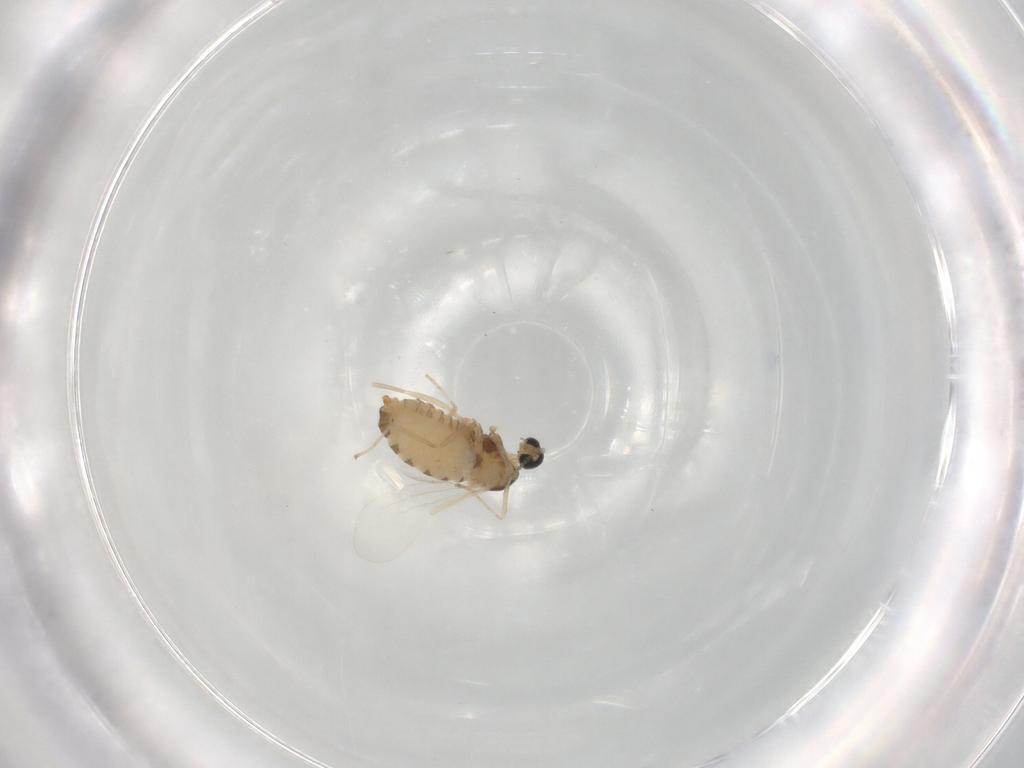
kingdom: Animalia
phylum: Arthropoda
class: Insecta
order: Diptera
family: Cecidomyiidae
